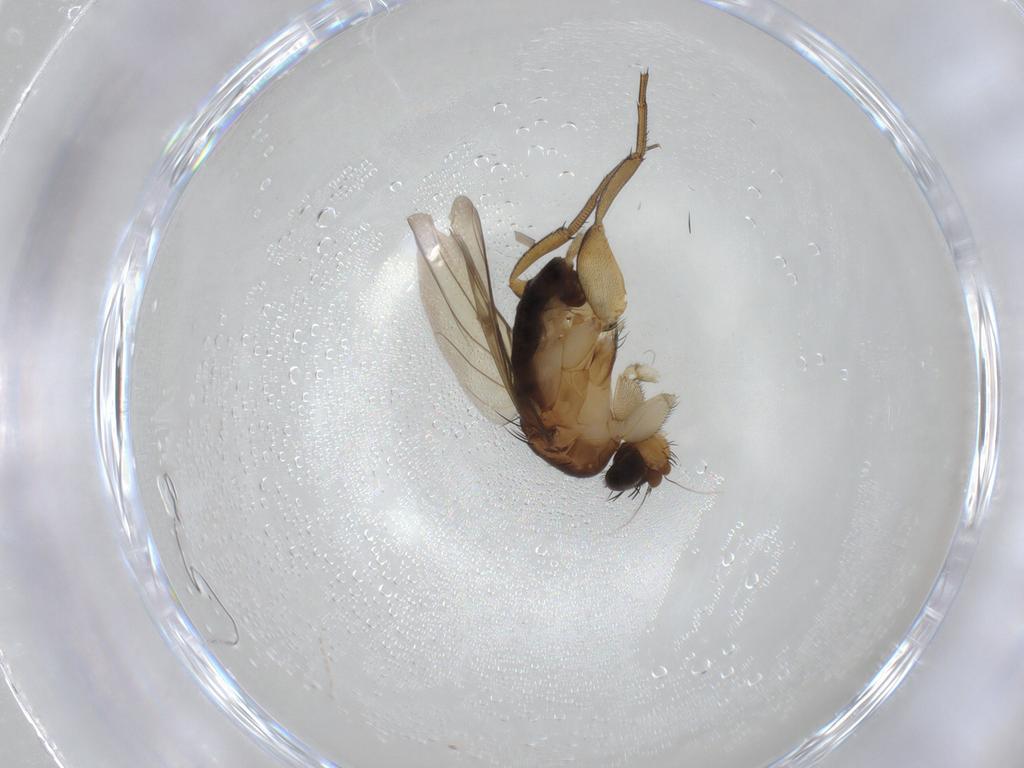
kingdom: Animalia
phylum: Arthropoda
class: Insecta
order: Diptera
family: Phoridae
